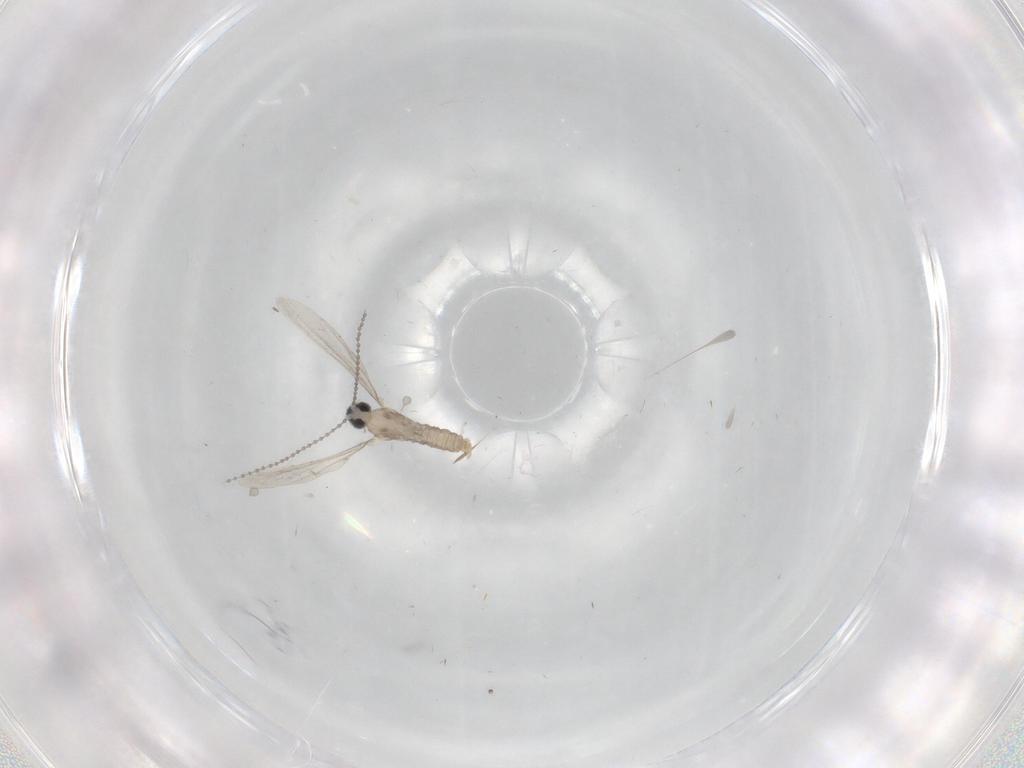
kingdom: Animalia
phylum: Arthropoda
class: Insecta
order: Diptera
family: Cecidomyiidae
